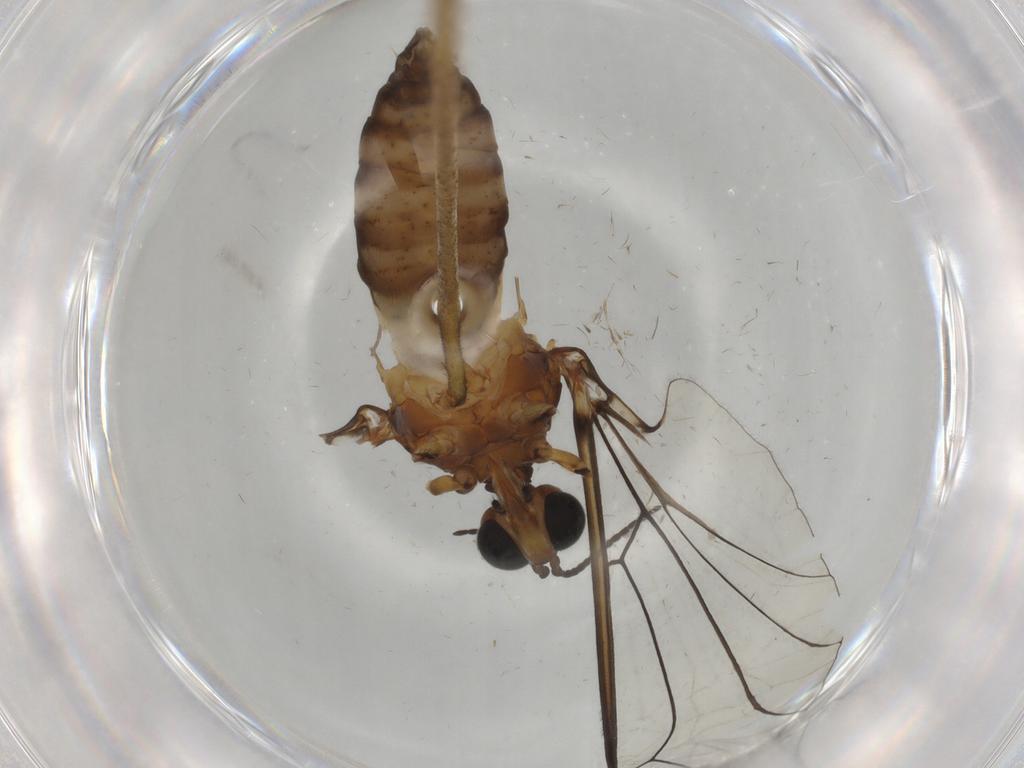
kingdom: Animalia
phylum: Arthropoda
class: Insecta
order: Diptera
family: Blephariceridae
